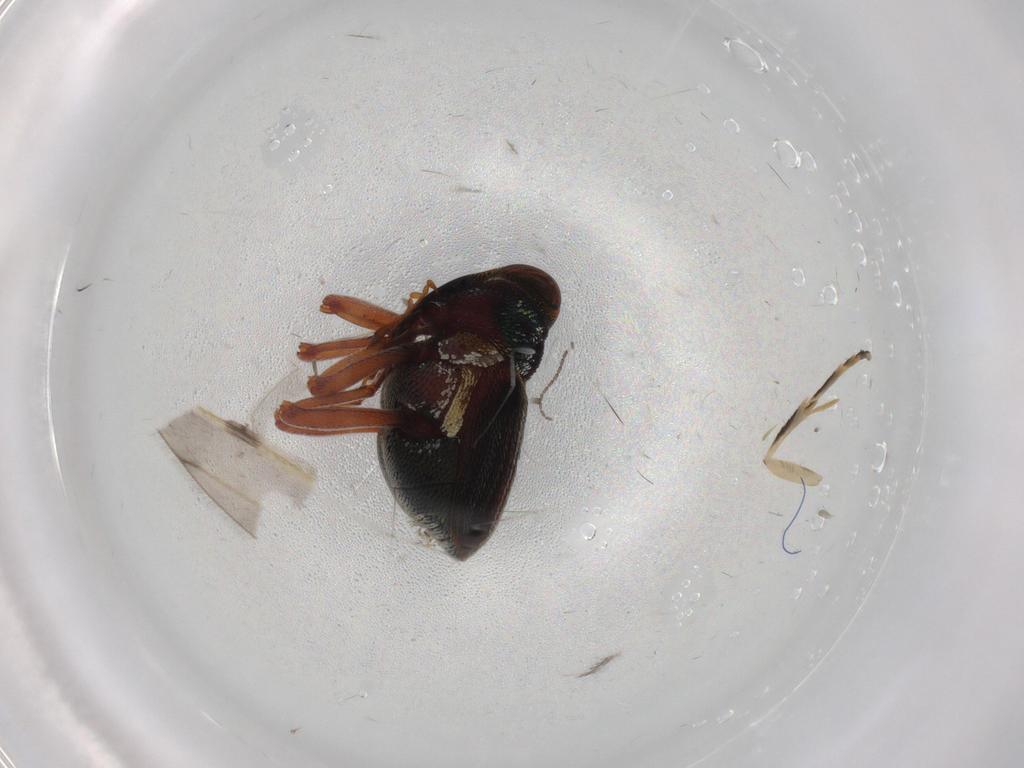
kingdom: Animalia
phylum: Arthropoda
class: Insecta
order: Coleoptera
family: Curculionidae
